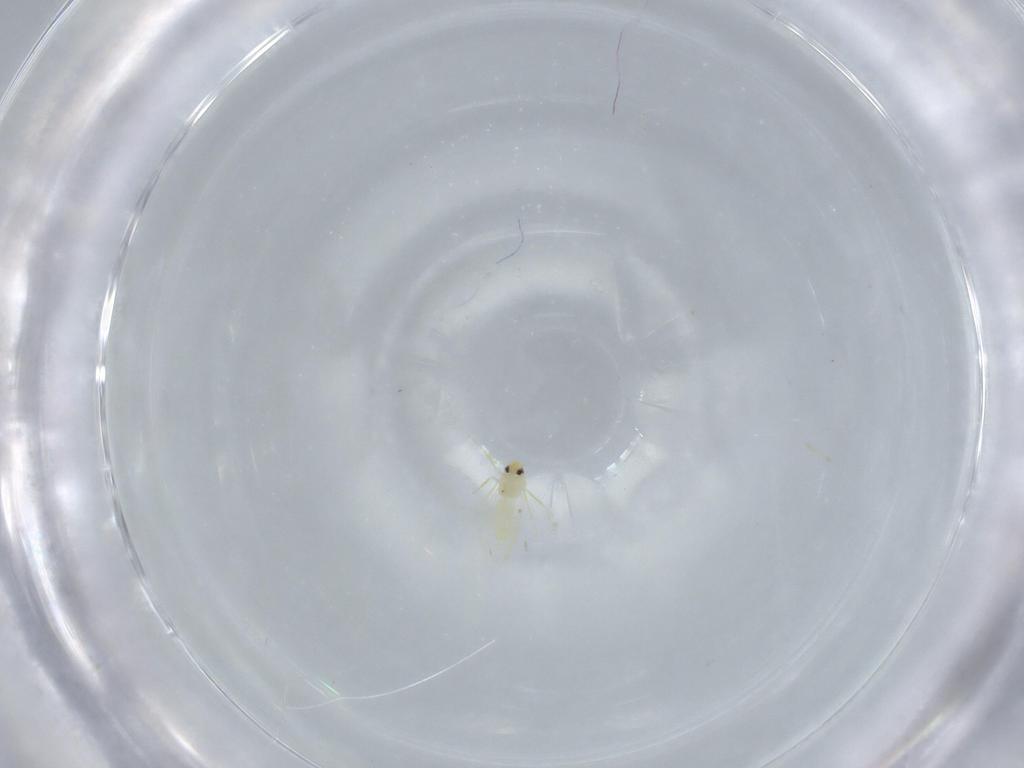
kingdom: Animalia
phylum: Arthropoda
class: Insecta
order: Hemiptera
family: Aleyrodidae
